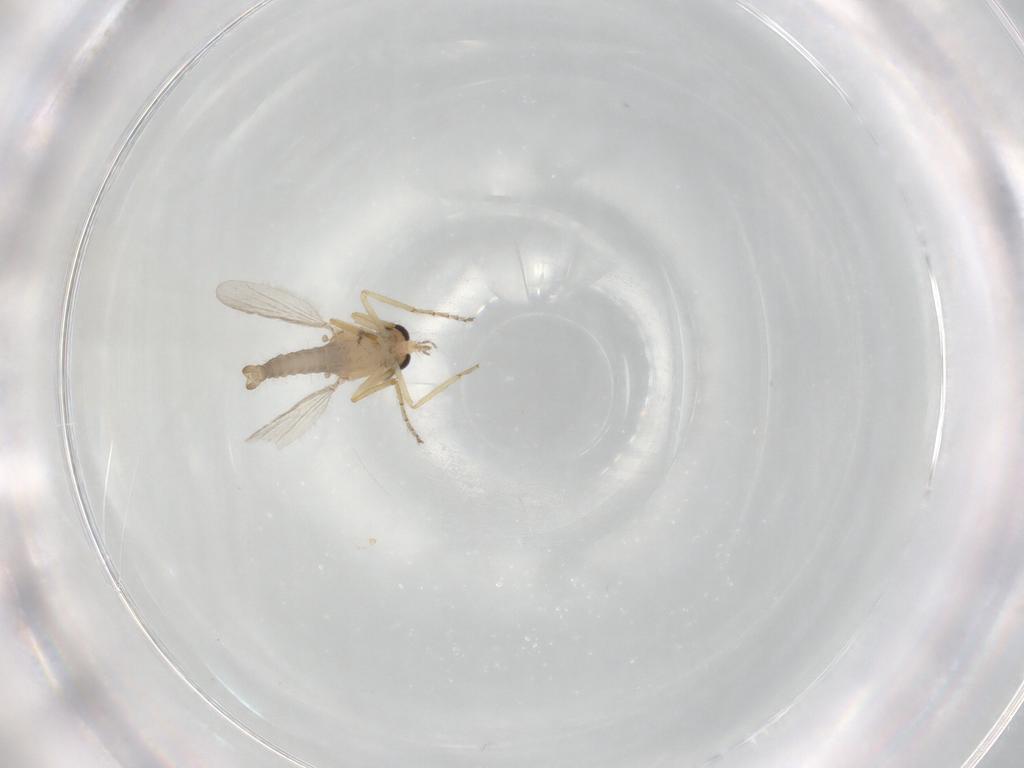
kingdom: Animalia
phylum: Arthropoda
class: Insecta
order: Diptera
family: Ceratopogonidae
